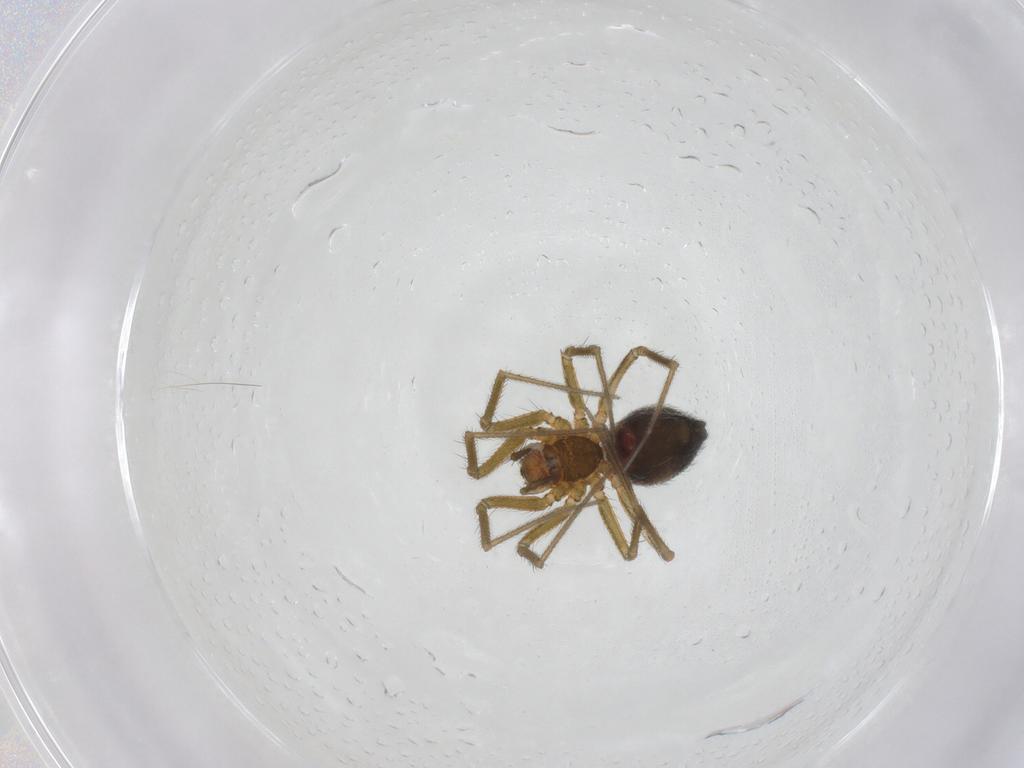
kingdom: Animalia
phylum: Arthropoda
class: Arachnida
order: Araneae
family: Linyphiidae
